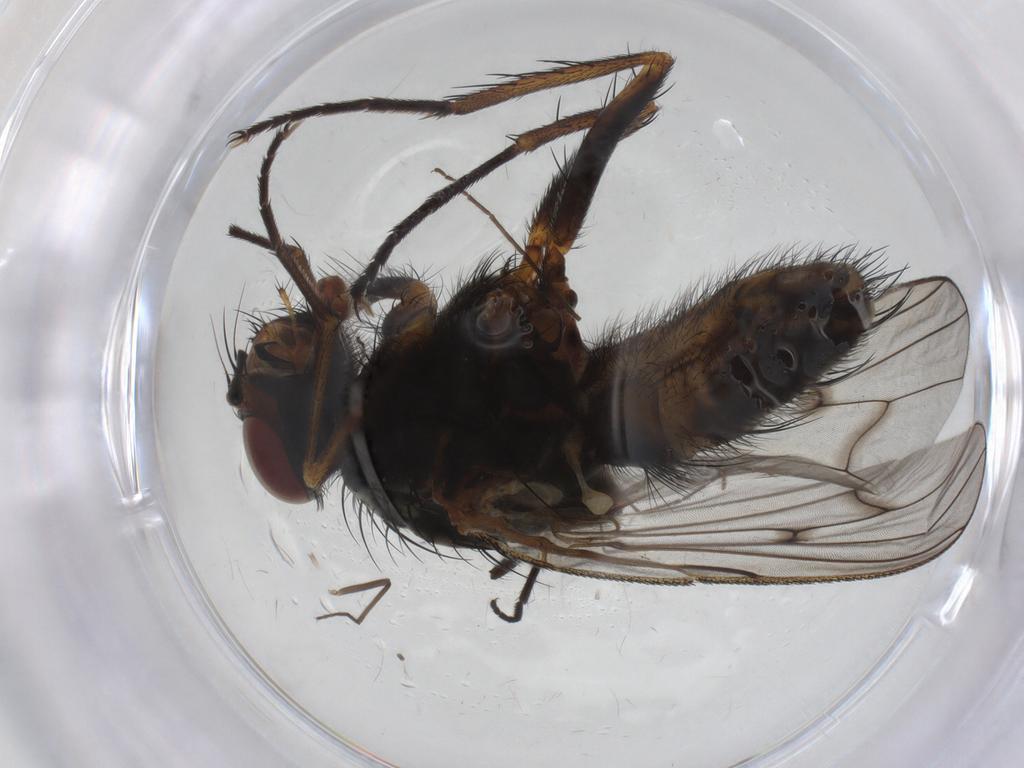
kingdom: Animalia
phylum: Arthropoda
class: Insecta
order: Diptera
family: Anthomyiidae
